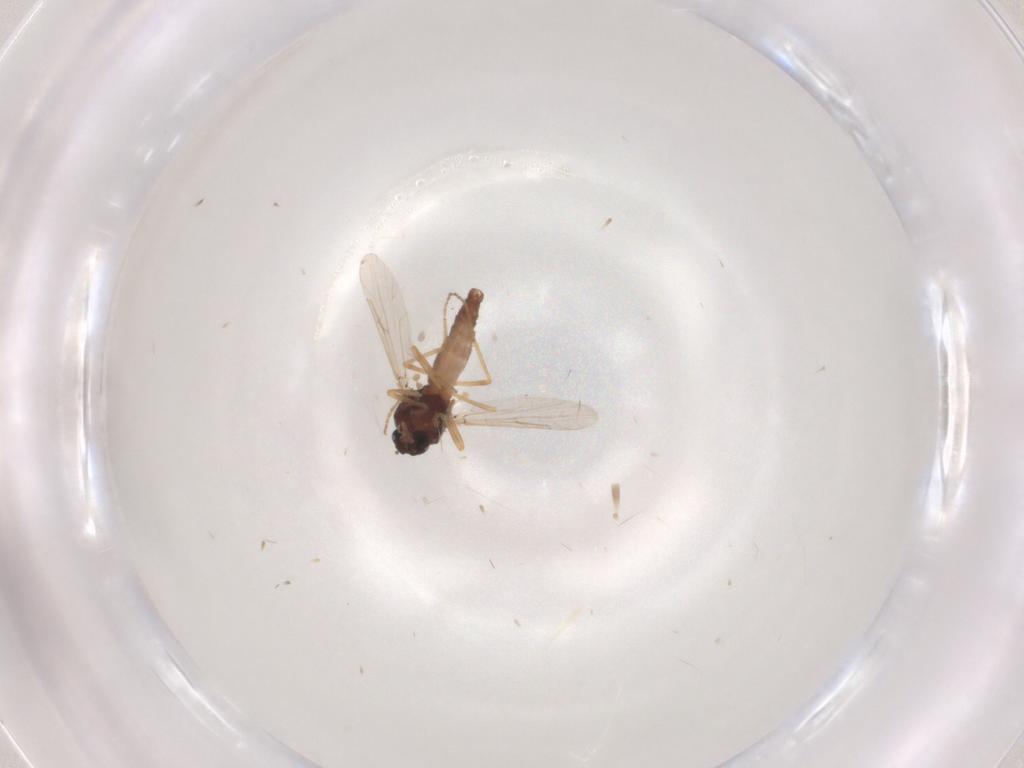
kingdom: Animalia
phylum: Arthropoda
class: Insecta
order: Diptera
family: Ceratopogonidae
